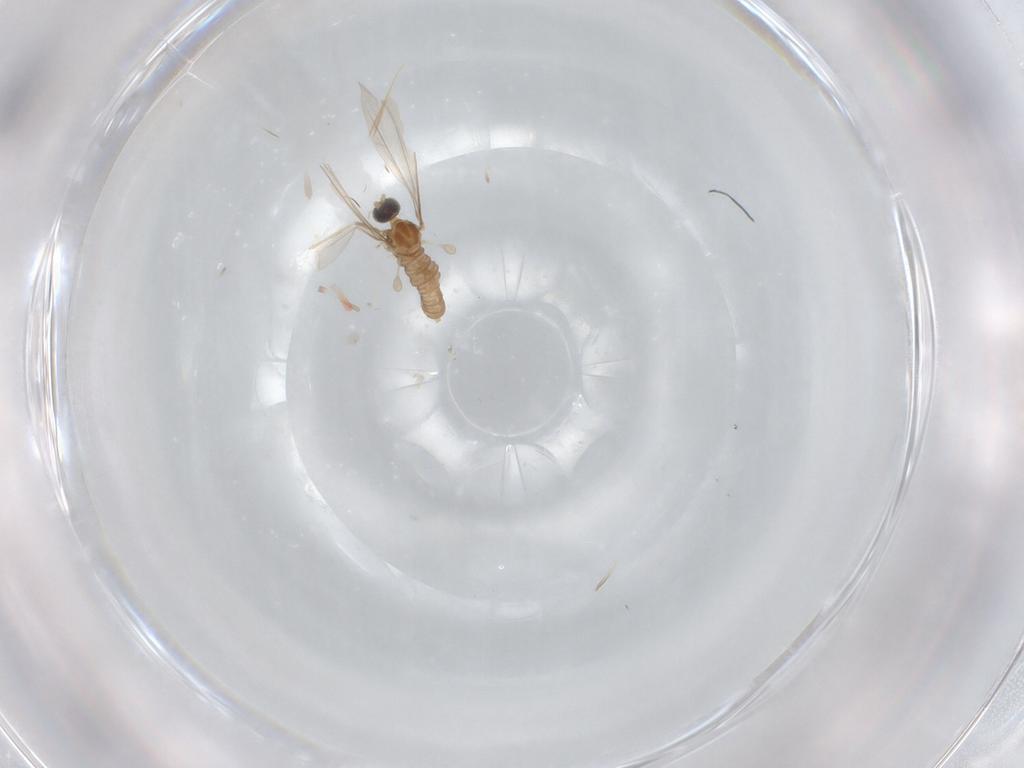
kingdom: Animalia
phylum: Arthropoda
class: Insecta
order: Diptera
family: Cecidomyiidae
